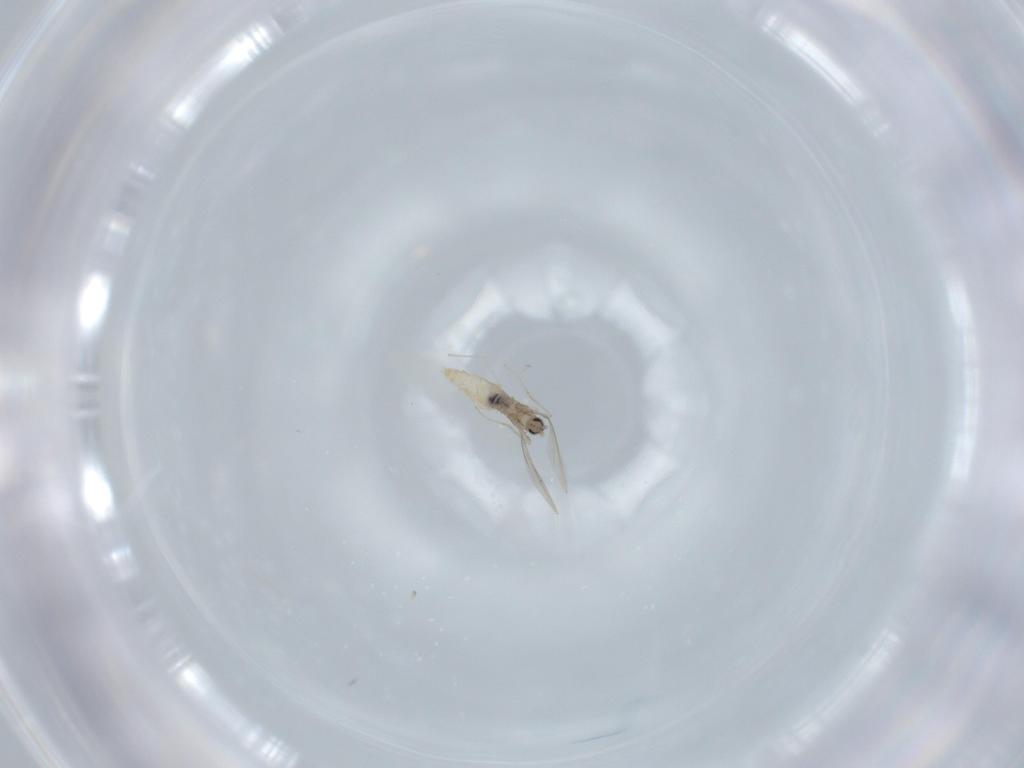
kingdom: Animalia
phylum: Arthropoda
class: Insecta
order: Diptera
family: Cecidomyiidae
